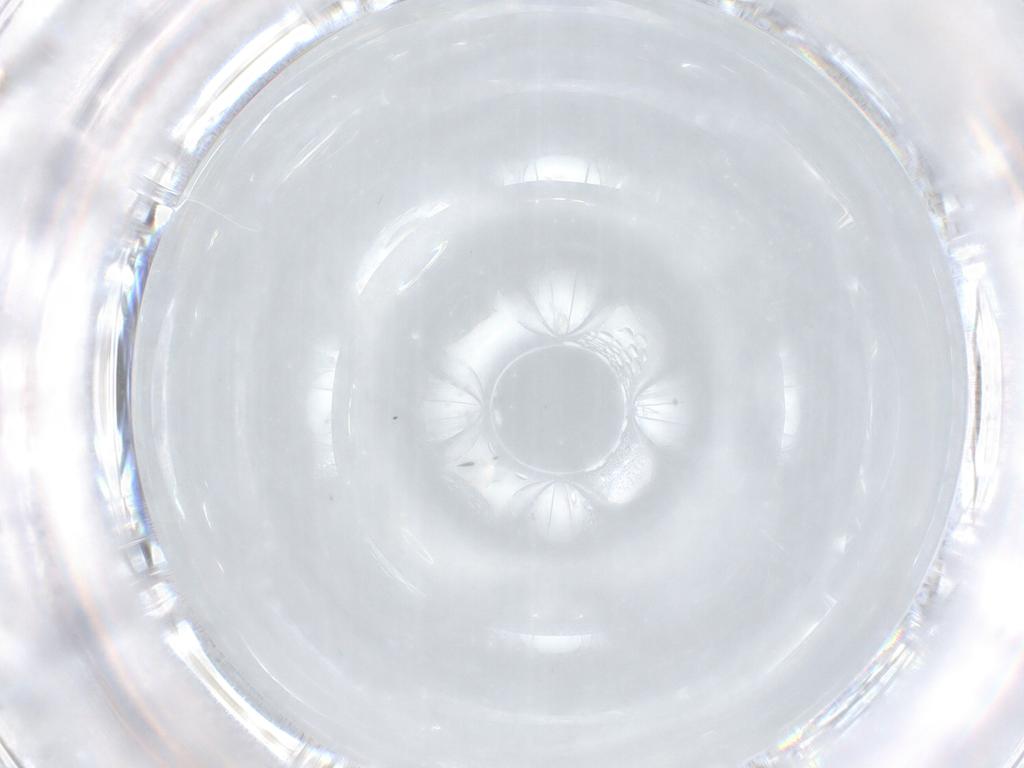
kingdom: Animalia
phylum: Arthropoda
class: Insecta
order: Diptera
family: Cecidomyiidae
